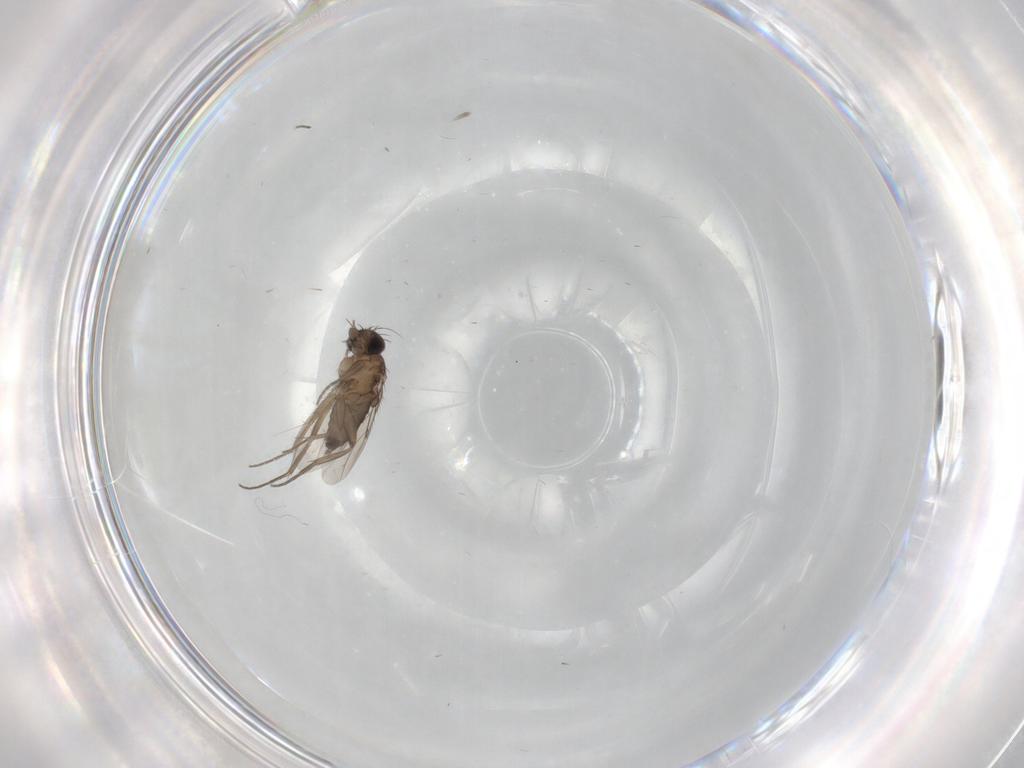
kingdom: Animalia
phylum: Arthropoda
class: Insecta
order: Diptera
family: Phoridae
